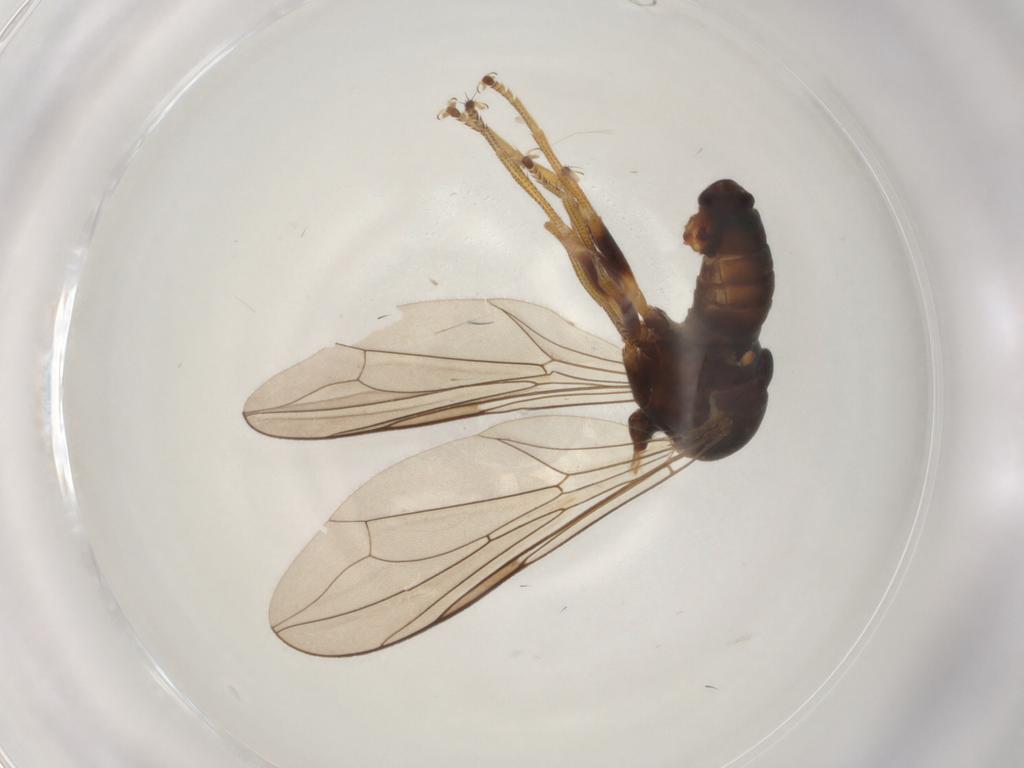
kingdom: Animalia
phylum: Arthropoda
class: Insecta
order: Diptera
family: Pipunculidae
